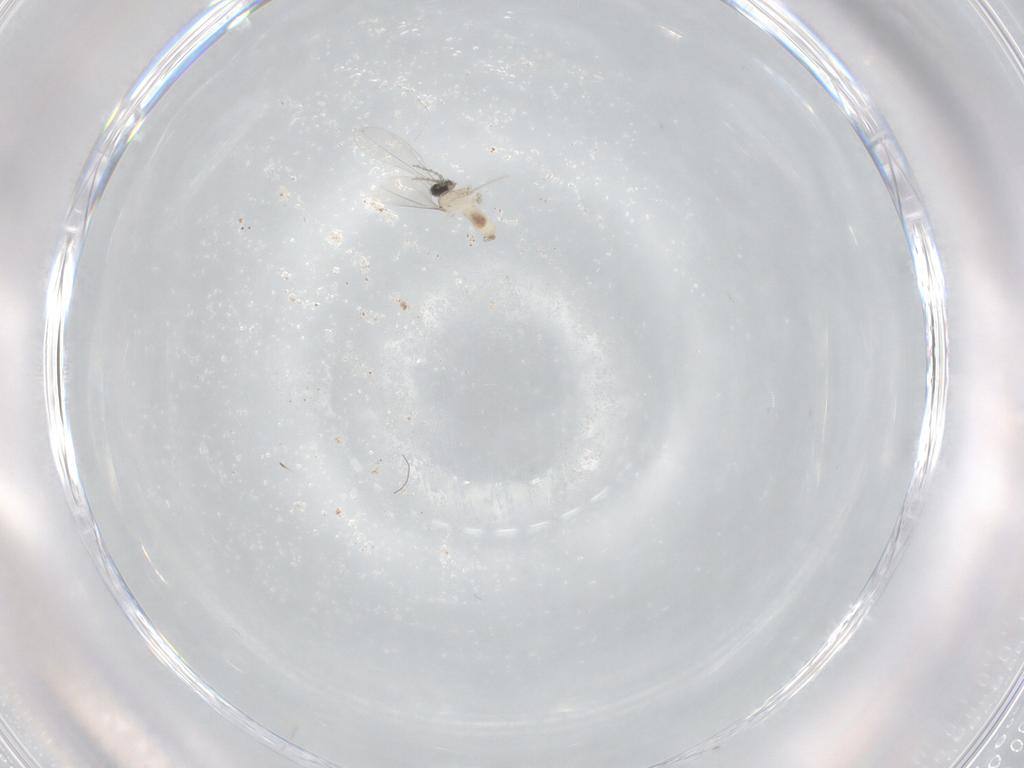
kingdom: Animalia
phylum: Arthropoda
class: Insecta
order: Diptera
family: Cecidomyiidae
